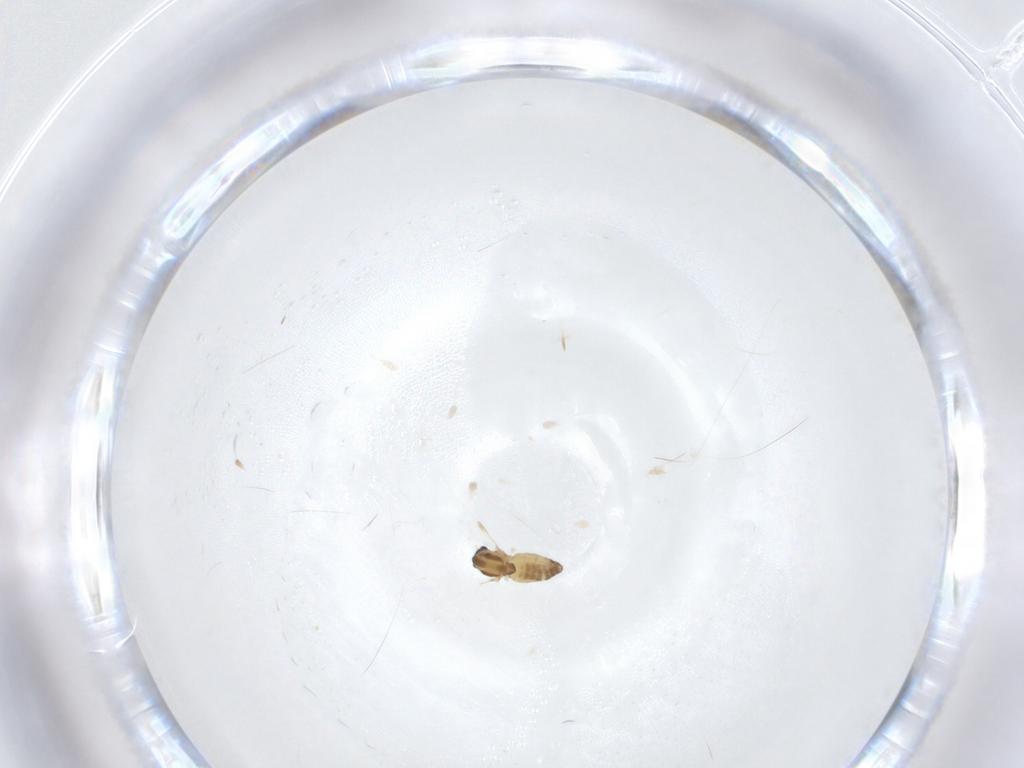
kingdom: Animalia
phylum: Arthropoda
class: Insecta
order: Diptera
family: Chironomidae
